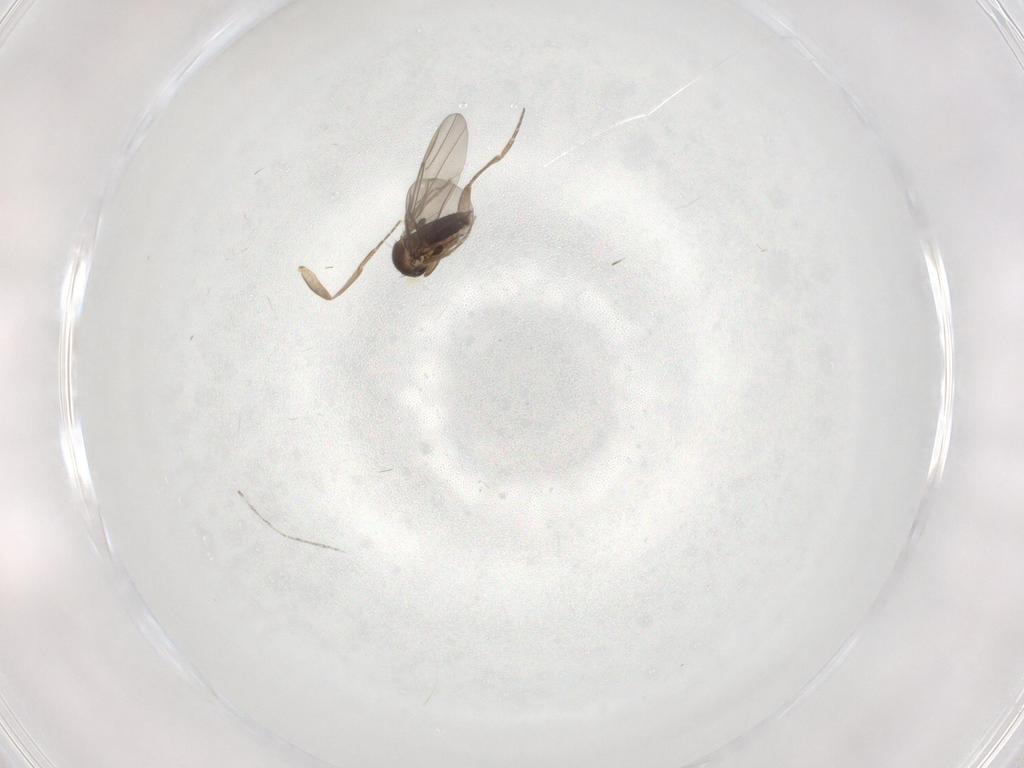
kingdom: Animalia
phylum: Arthropoda
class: Insecta
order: Diptera
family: Phoridae
